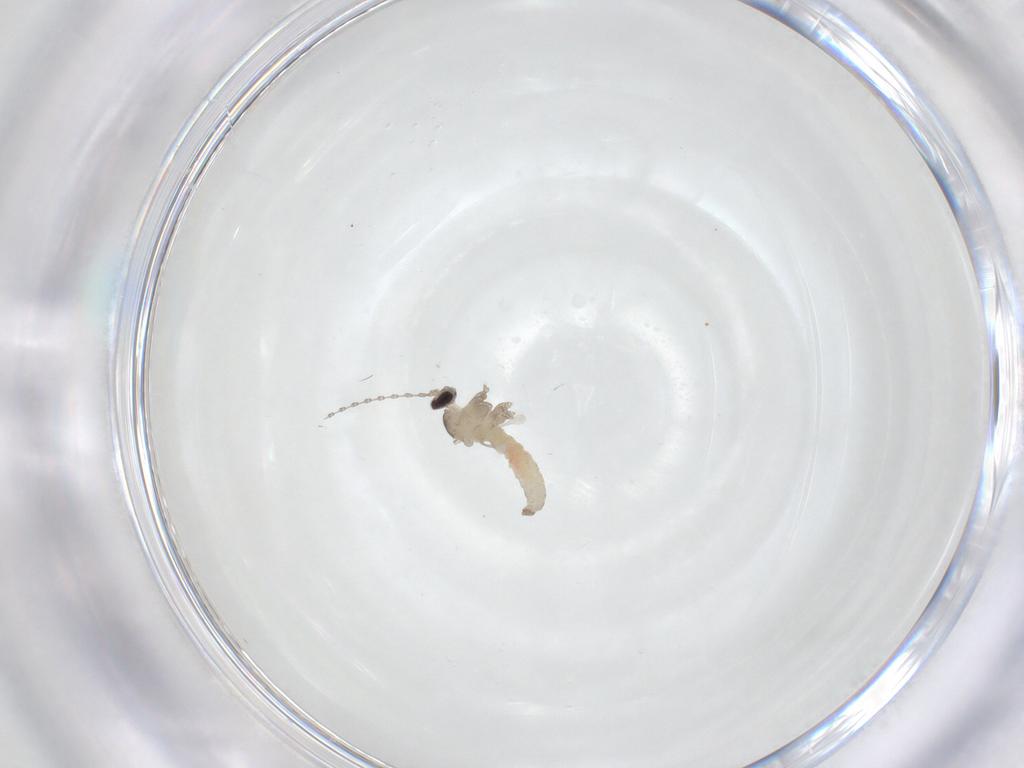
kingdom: Animalia
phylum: Arthropoda
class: Insecta
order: Diptera
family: Cecidomyiidae
